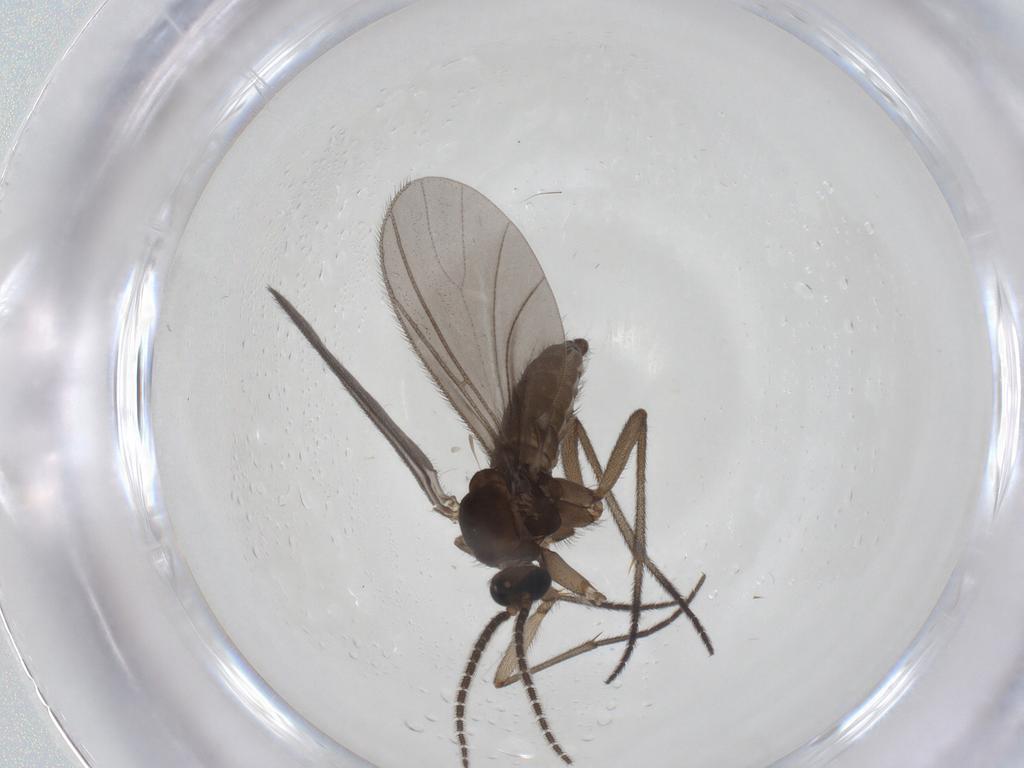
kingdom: Animalia
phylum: Arthropoda
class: Insecta
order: Diptera
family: Sciaridae
